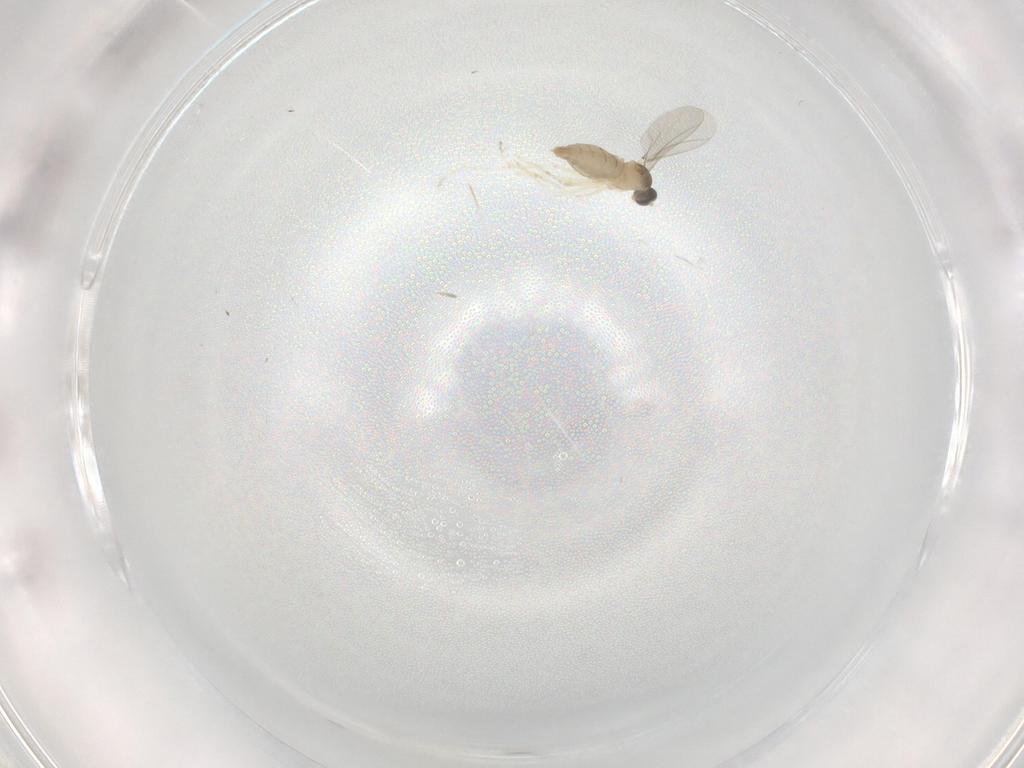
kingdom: Animalia
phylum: Arthropoda
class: Insecta
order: Diptera
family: Cecidomyiidae
